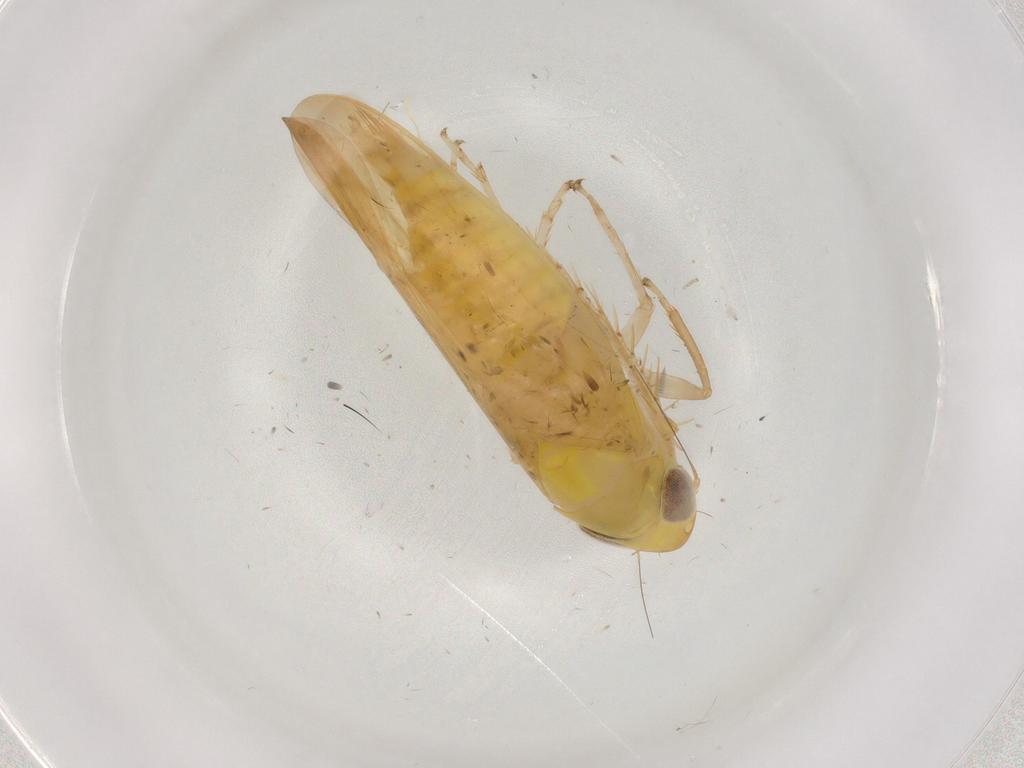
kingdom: Animalia
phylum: Arthropoda
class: Insecta
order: Hemiptera
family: Cicadellidae
